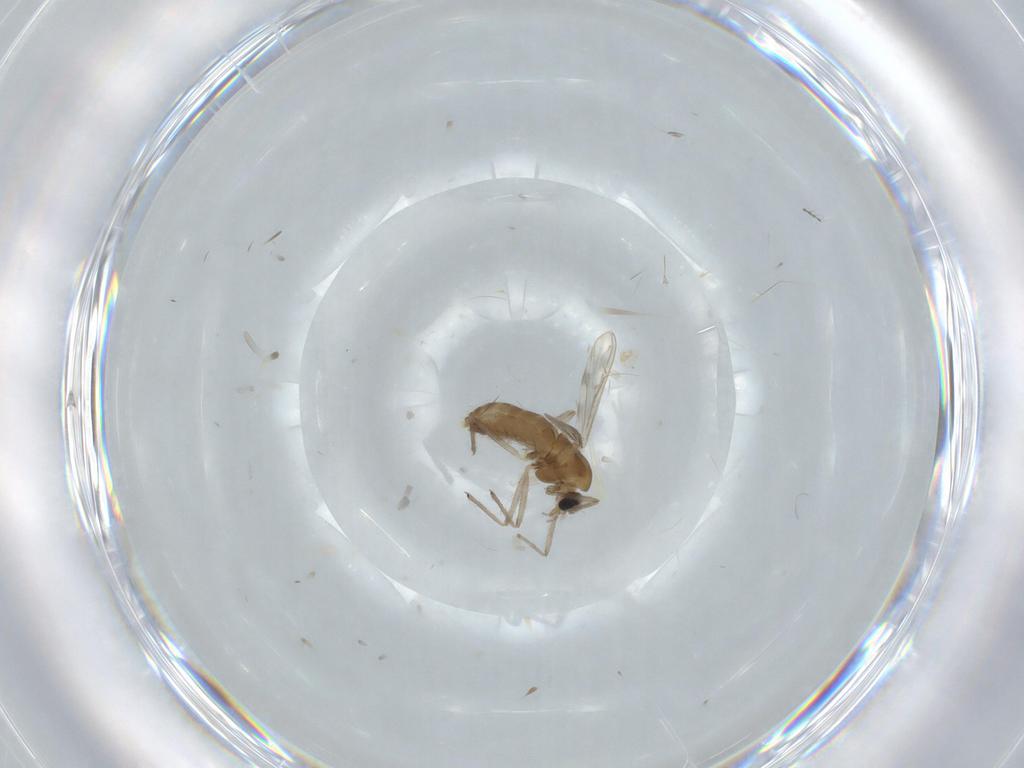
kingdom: Animalia
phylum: Arthropoda
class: Insecta
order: Diptera
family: Chironomidae
